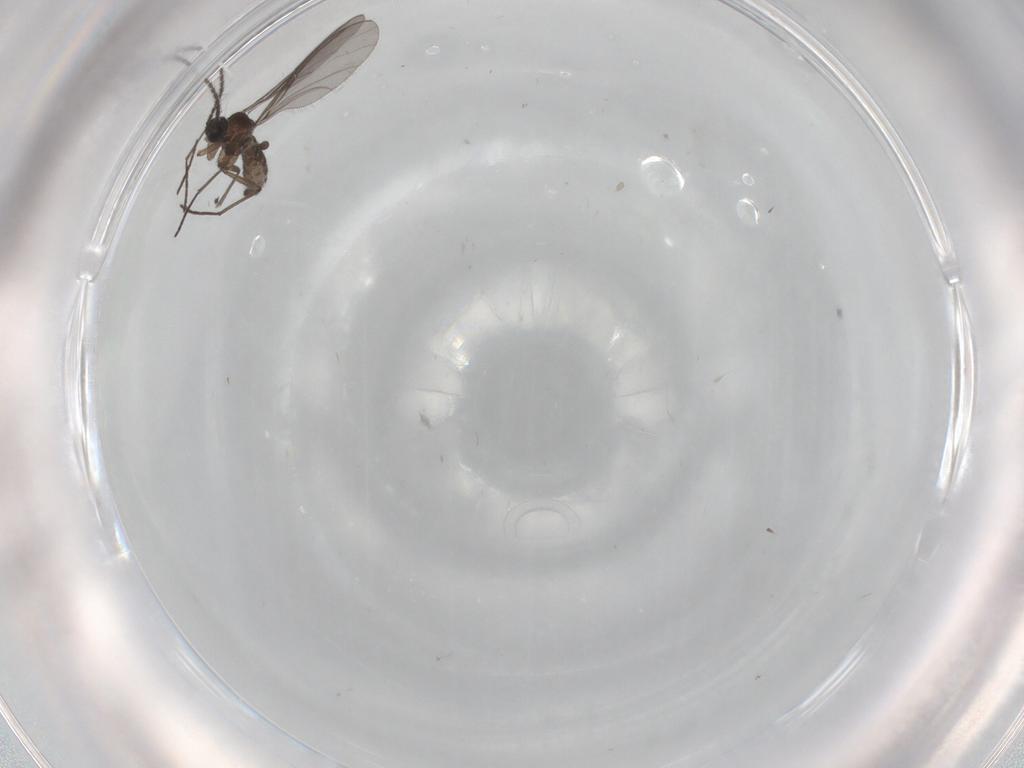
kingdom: Animalia
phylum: Arthropoda
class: Insecta
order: Diptera
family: Sciaridae
